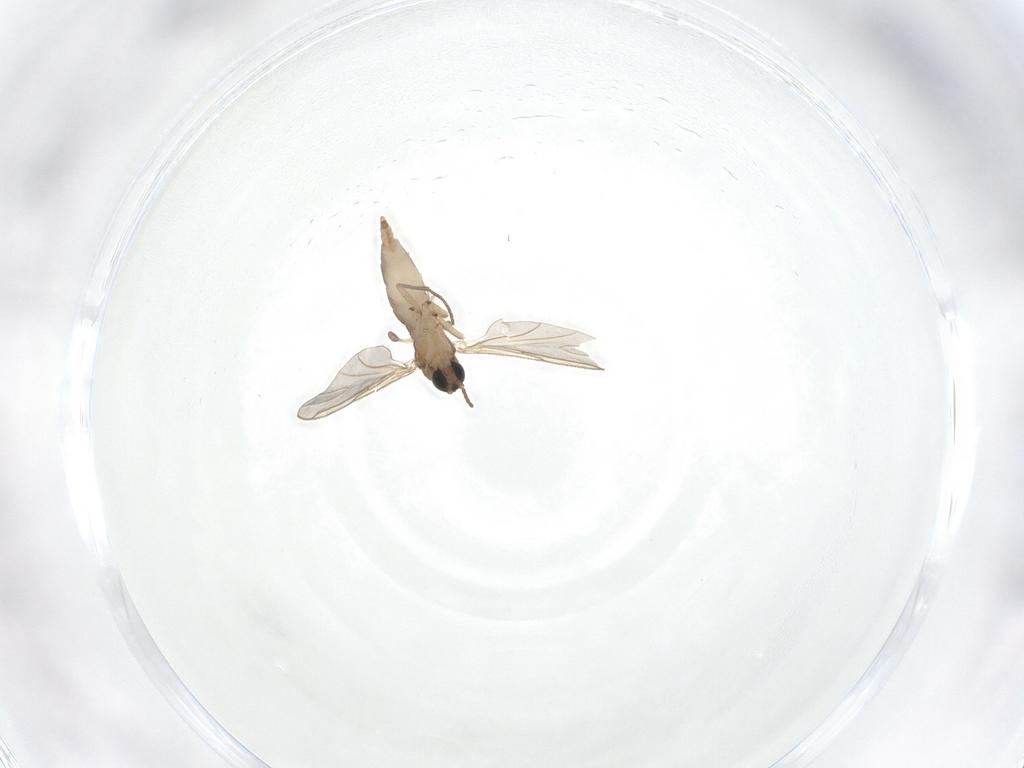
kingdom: Animalia
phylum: Arthropoda
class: Insecta
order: Diptera
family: Sciaridae
